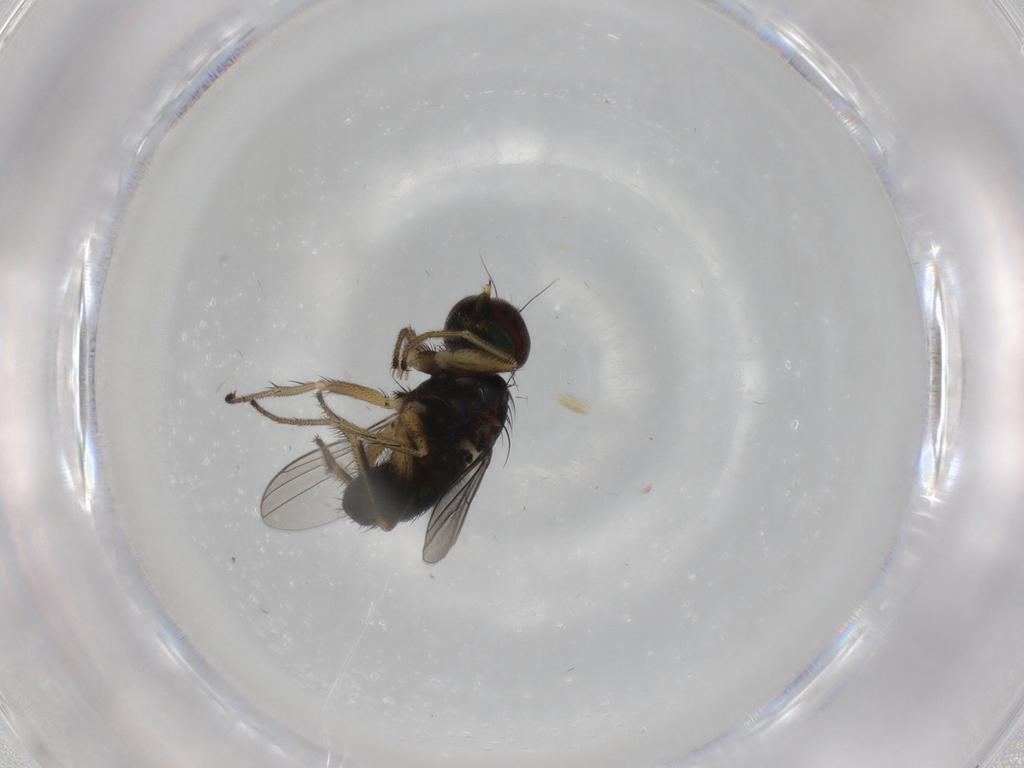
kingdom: Animalia
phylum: Arthropoda
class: Insecta
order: Diptera
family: Dolichopodidae
